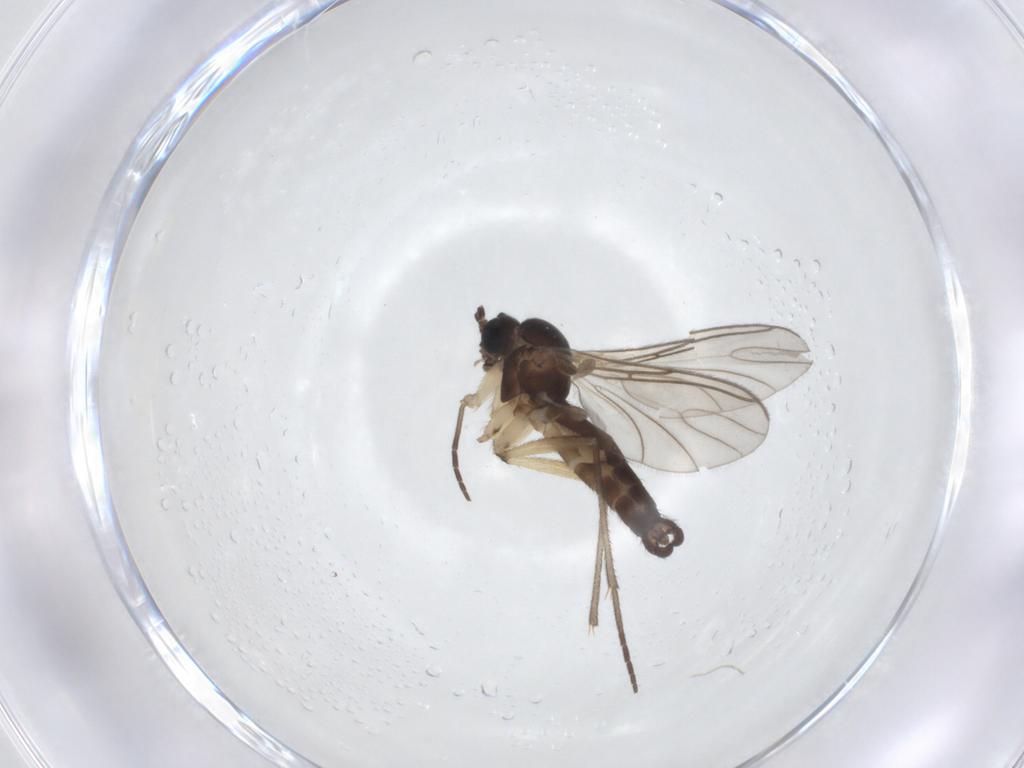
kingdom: Animalia
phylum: Arthropoda
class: Insecta
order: Diptera
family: Sciaridae
